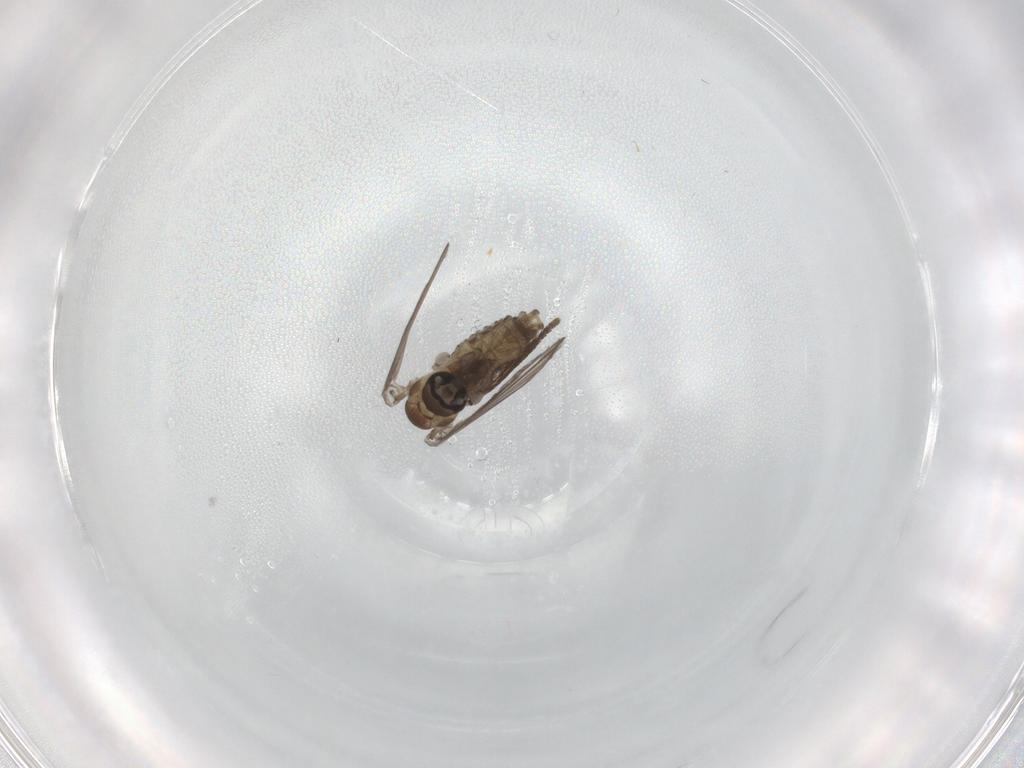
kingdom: Animalia
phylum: Arthropoda
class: Insecta
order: Diptera
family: Psychodidae
